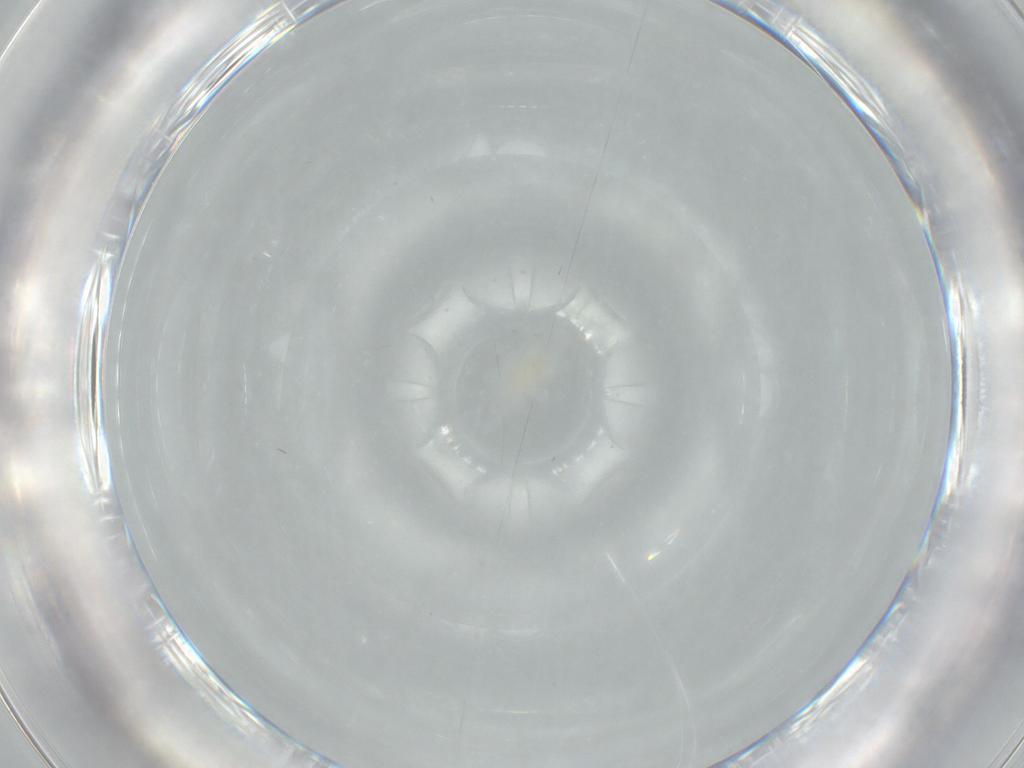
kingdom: Animalia
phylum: Arthropoda
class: Arachnida
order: Trombidiformes
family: Eupodidae
